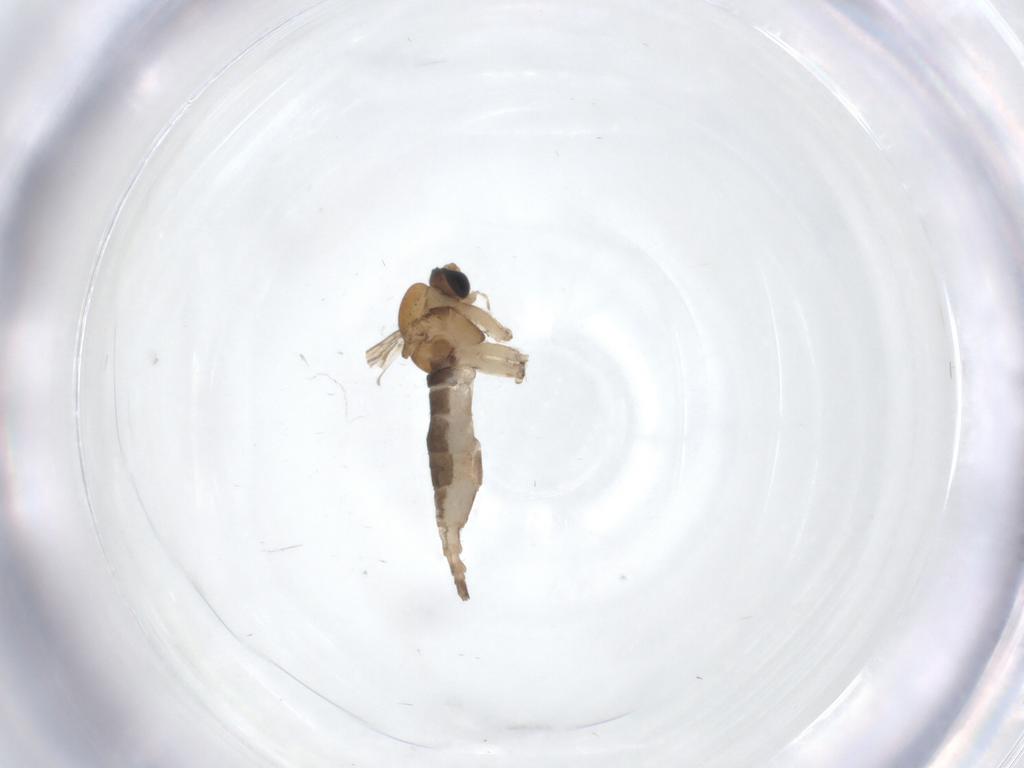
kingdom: Animalia
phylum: Arthropoda
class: Insecta
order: Diptera
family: Sciaridae
